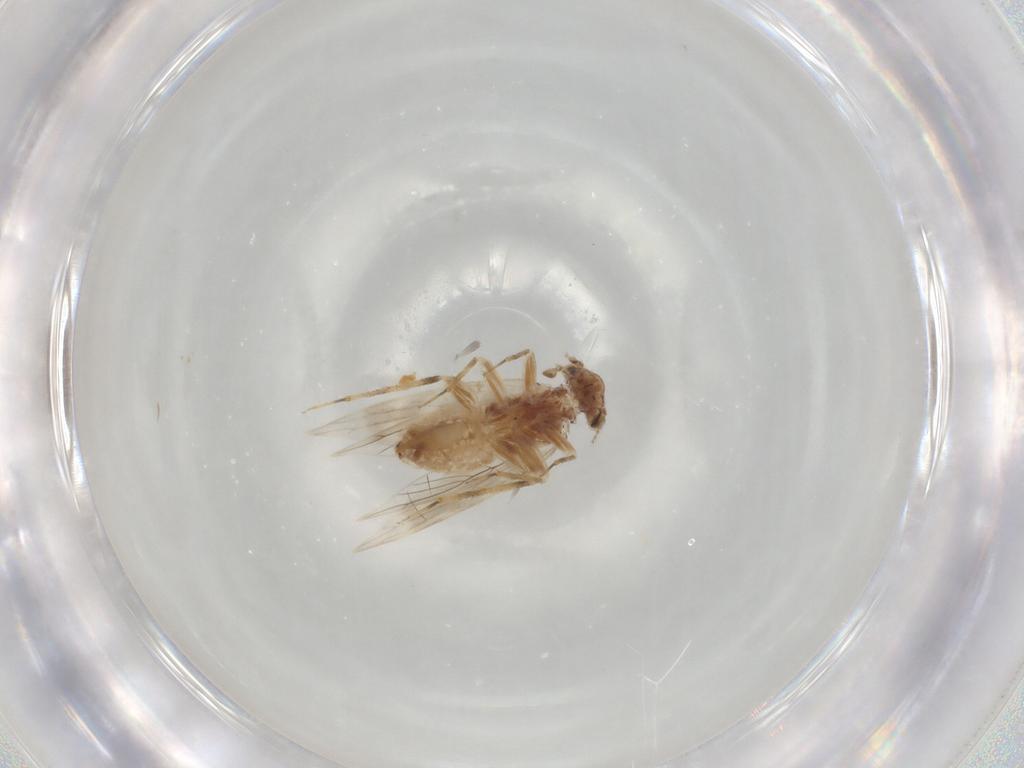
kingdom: Animalia
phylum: Arthropoda
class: Insecta
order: Psocodea
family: Lepidopsocidae
